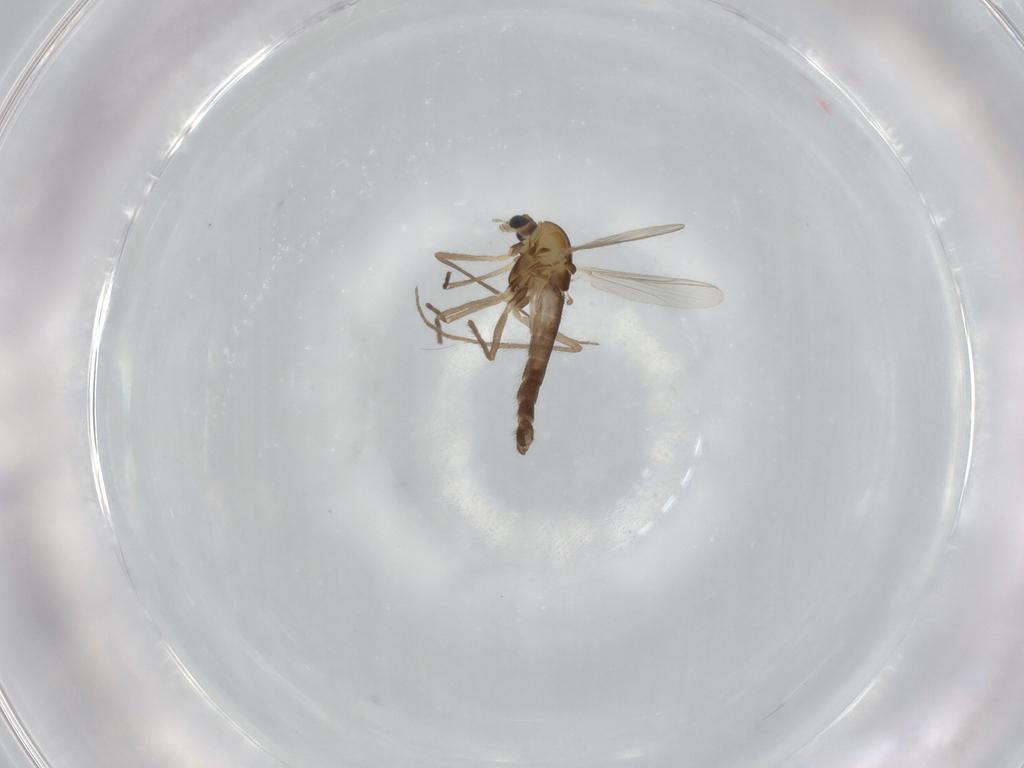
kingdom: Animalia
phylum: Arthropoda
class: Insecta
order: Diptera
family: Chironomidae
